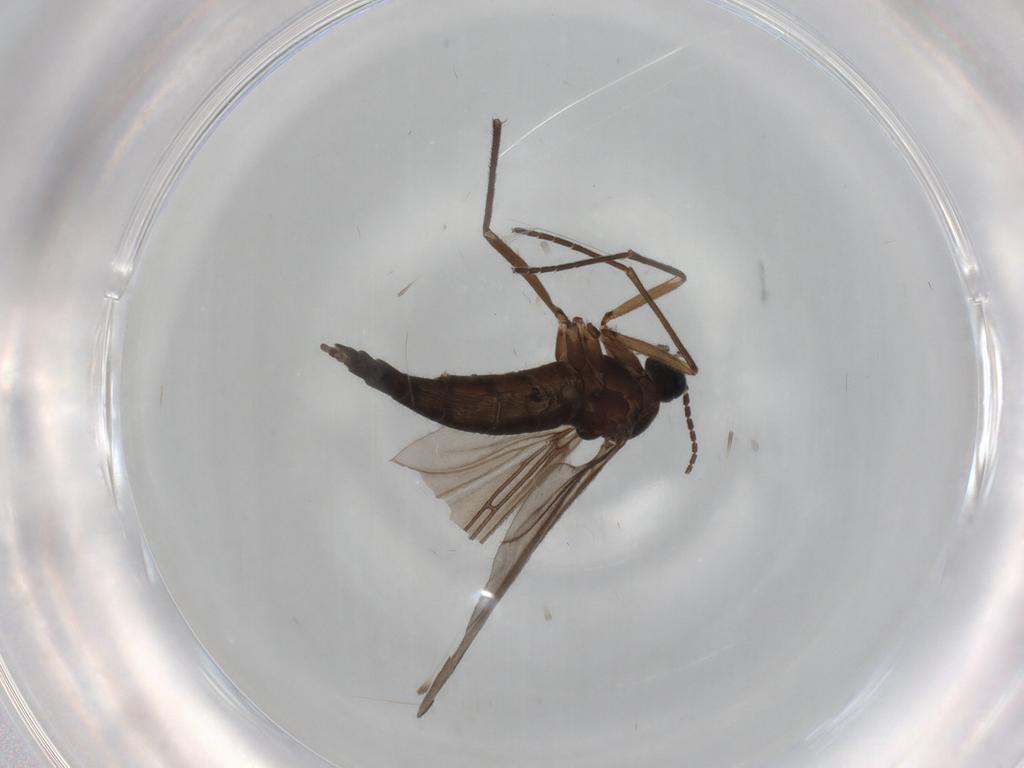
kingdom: Animalia
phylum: Arthropoda
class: Insecta
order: Diptera
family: Sciaridae
